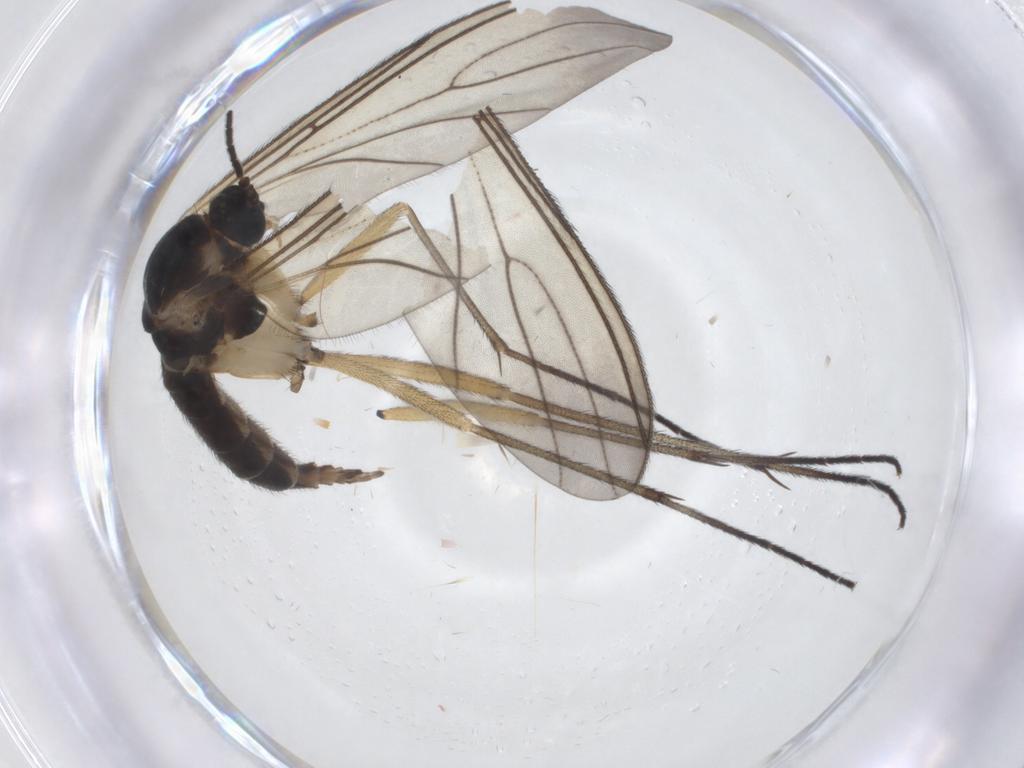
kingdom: Animalia
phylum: Arthropoda
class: Insecta
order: Diptera
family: Sciaridae
